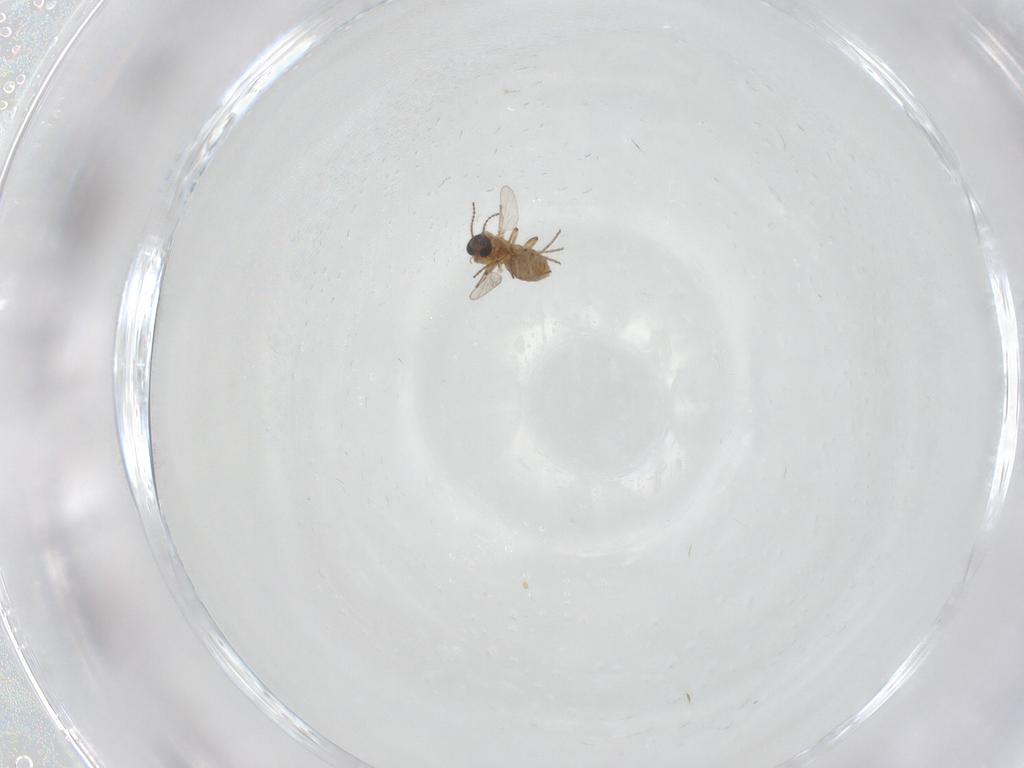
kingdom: Animalia
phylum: Arthropoda
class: Insecta
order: Diptera
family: Ceratopogonidae
